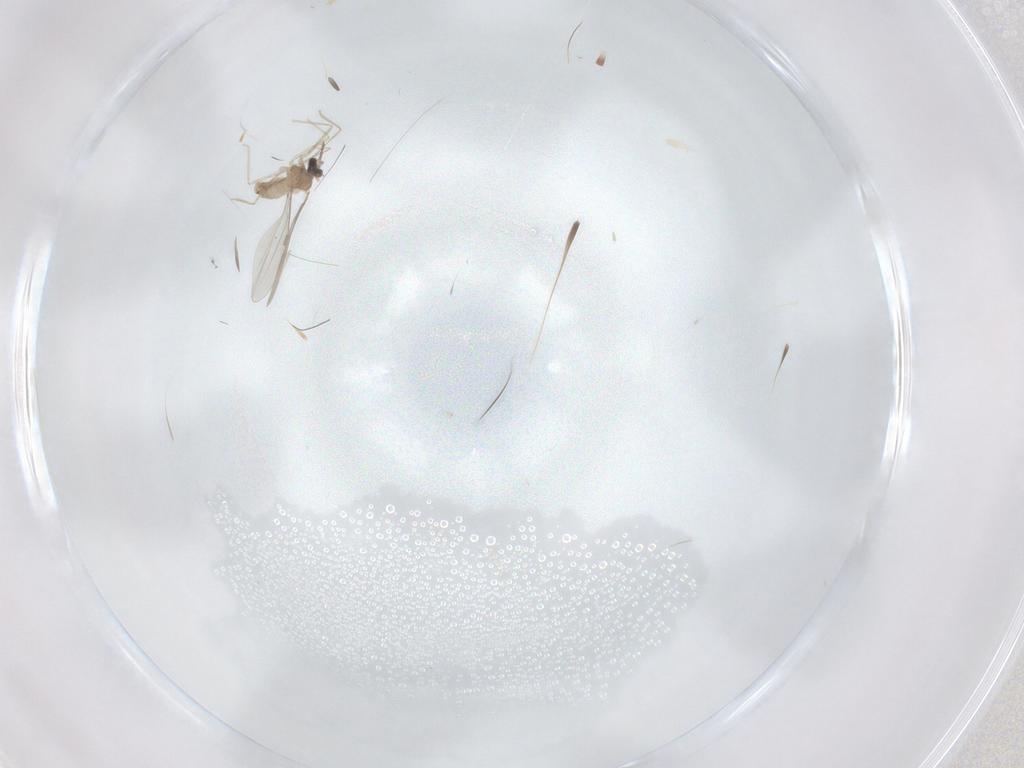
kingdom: Animalia
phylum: Arthropoda
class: Insecta
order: Diptera
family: Cecidomyiidae
